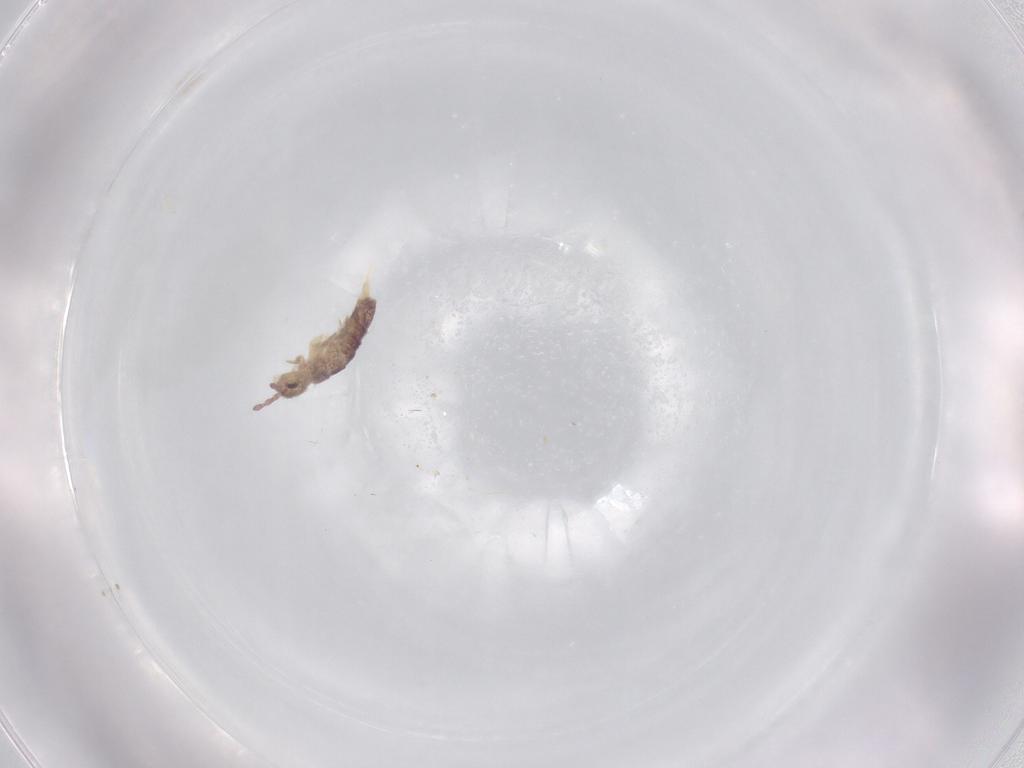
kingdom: Animalia
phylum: Arthropoda
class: Collembola
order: Entomobryomorpha
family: Isotomidae
